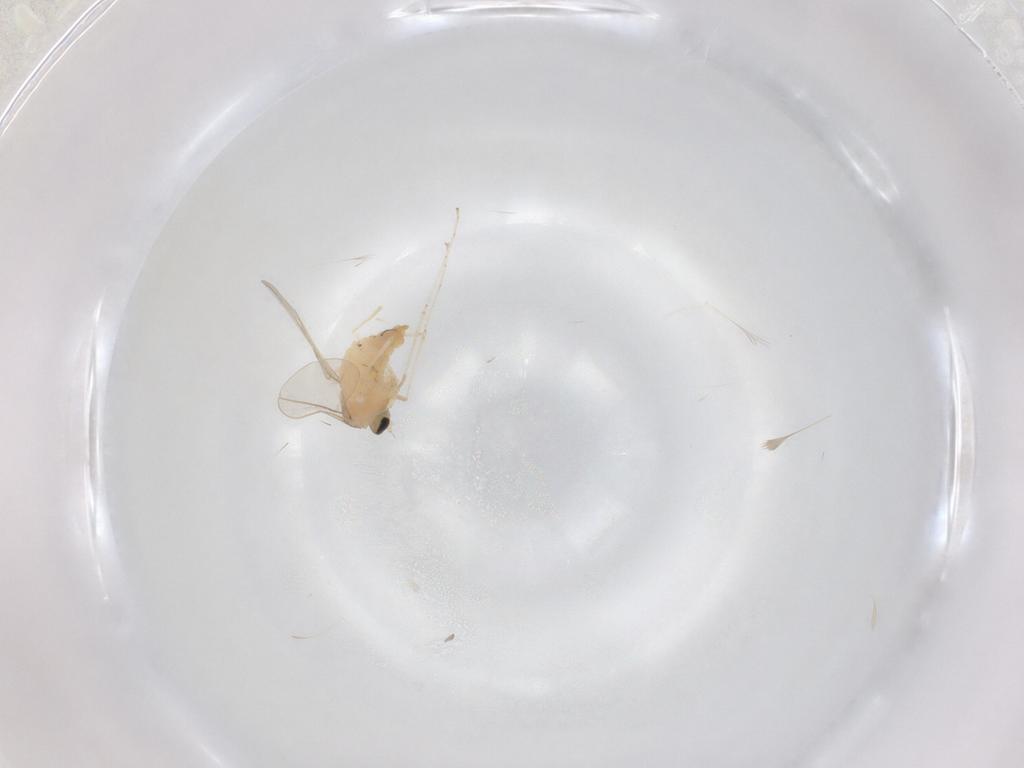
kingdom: Animalia
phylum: Arthropoda
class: Insecta
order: Diptera
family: Cecidomyiidae
